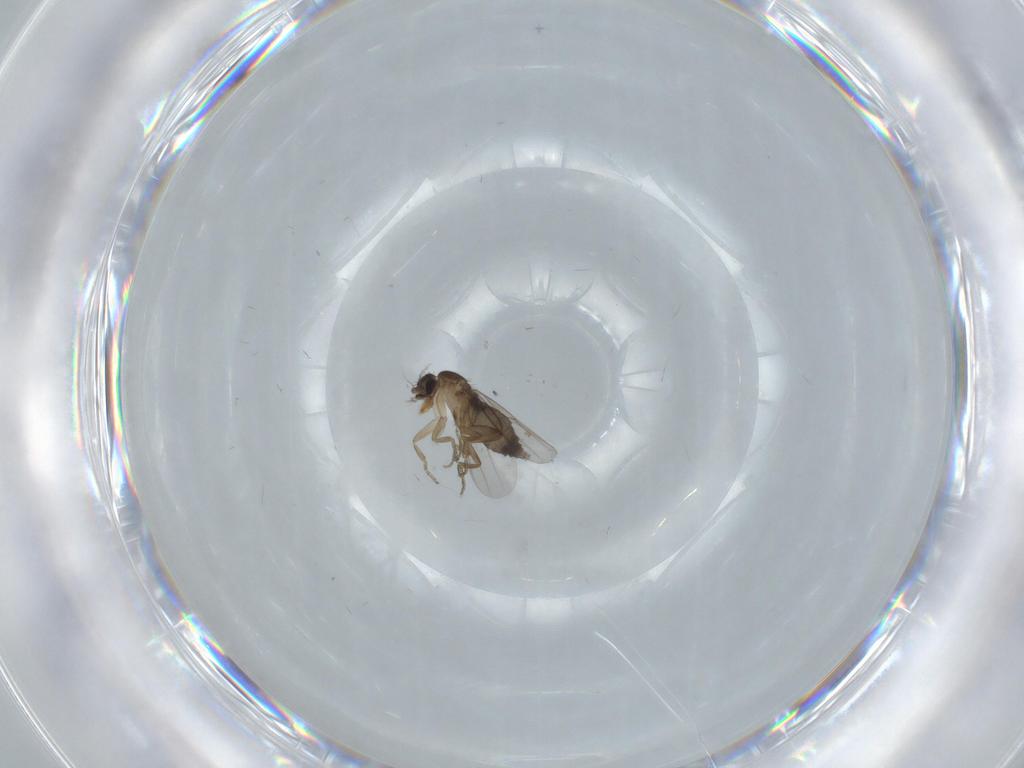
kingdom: Animalia
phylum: Arthropoda
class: Insecta
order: Diptera
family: Phoridae
